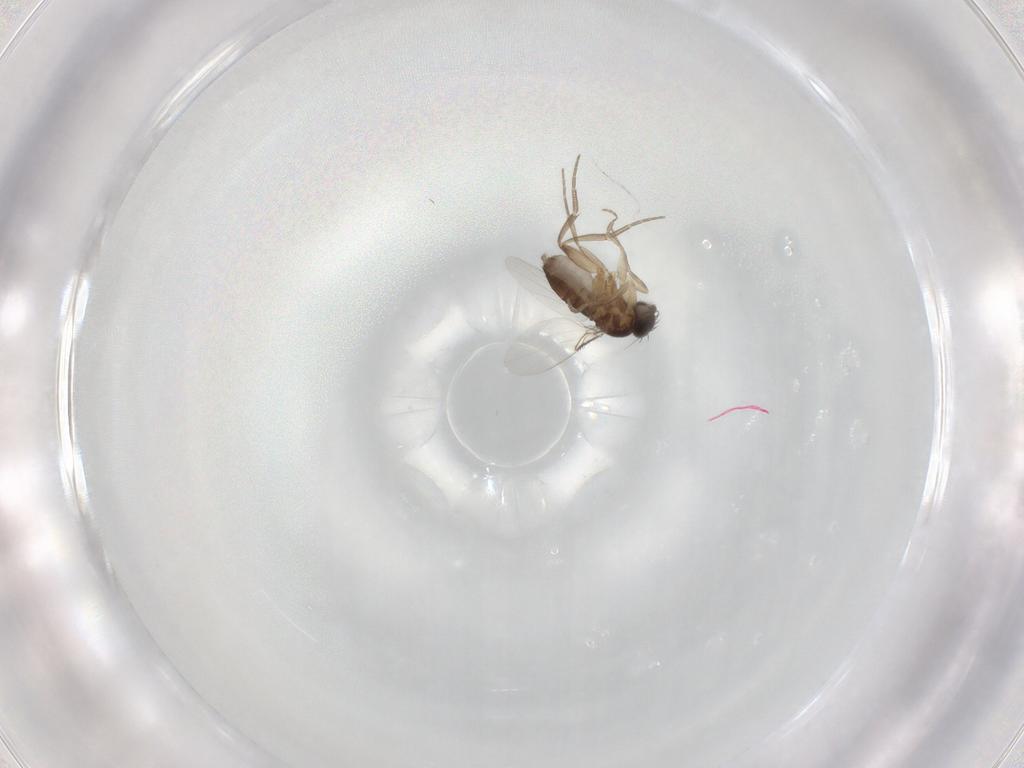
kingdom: Animalia
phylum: Arthropoda
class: Insecta
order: Diptera
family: Phoridae
